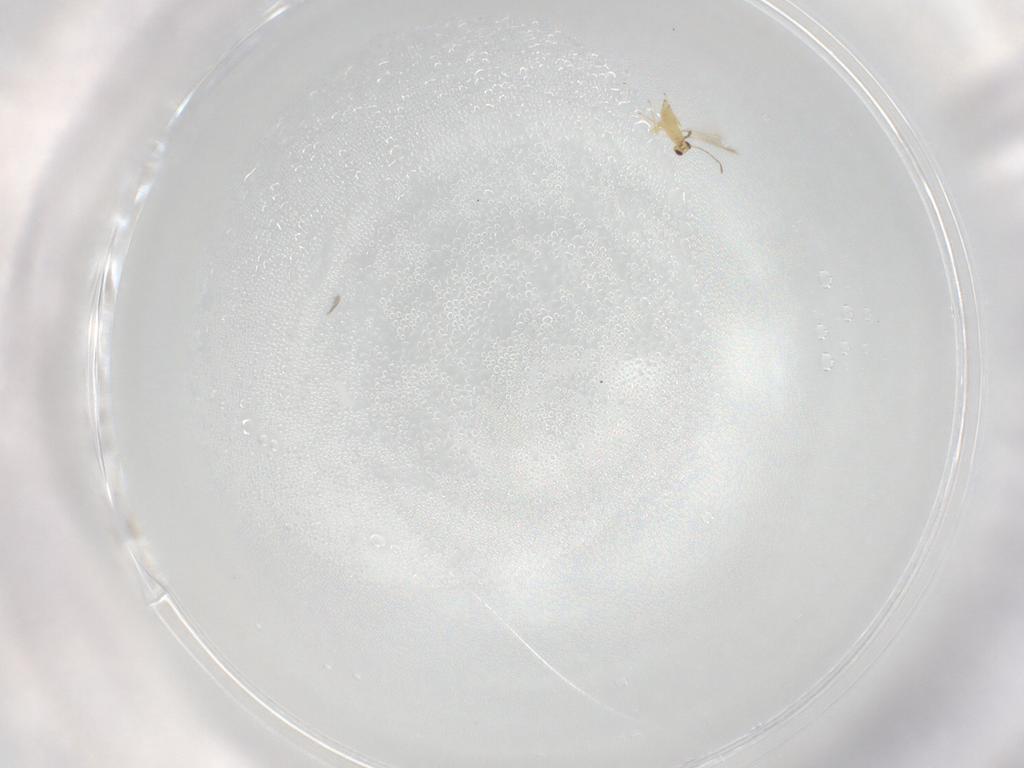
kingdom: Animalia
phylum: Arthropoda
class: Insecta
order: Hymenoptera
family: Mymaridae
